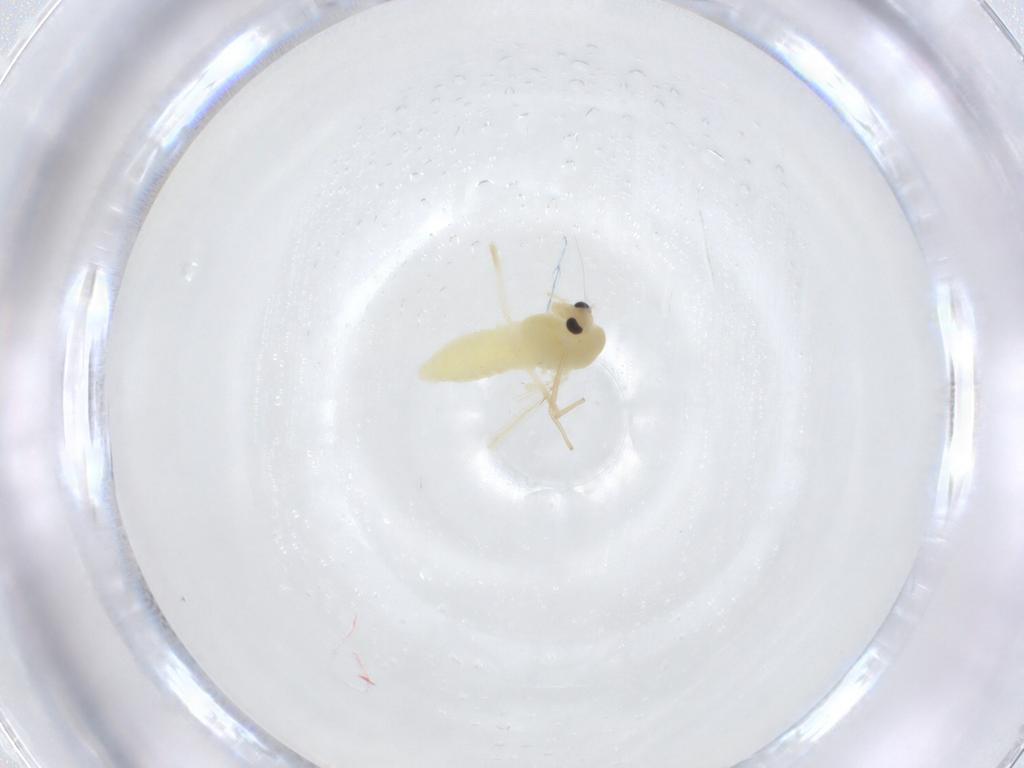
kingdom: Animalia
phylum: Arthropoda
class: Insecta
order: Diptera
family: Chironomidae
